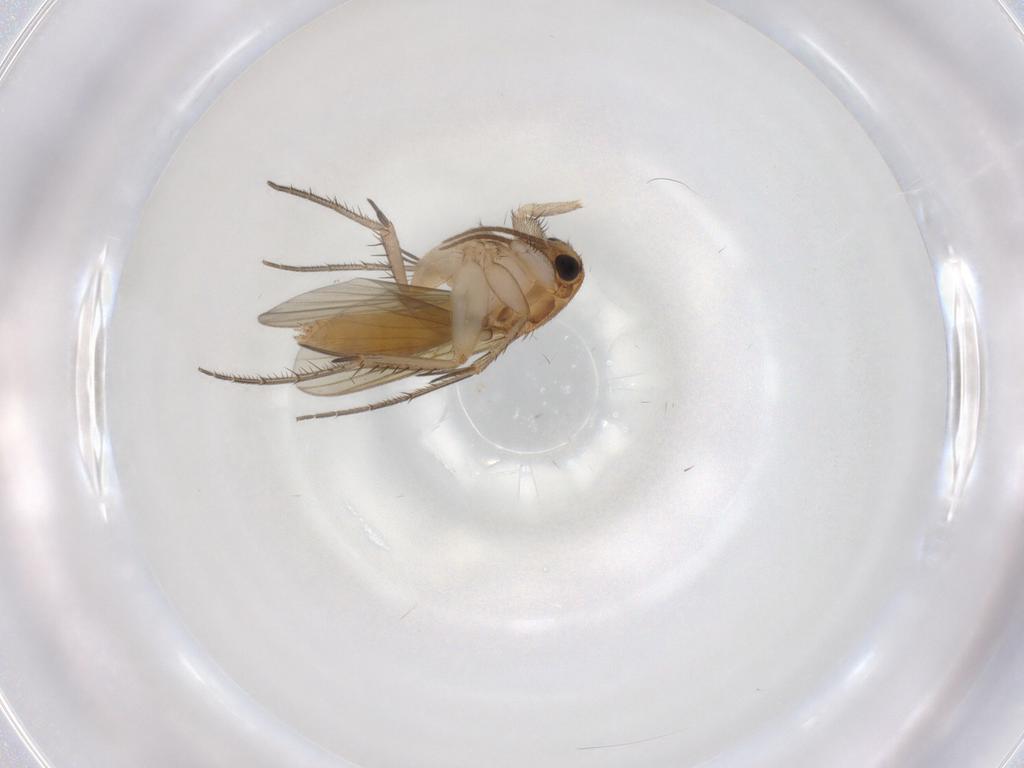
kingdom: Animalia
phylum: Arthropoda
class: Insecta
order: Diptera
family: Mycetophilidae
